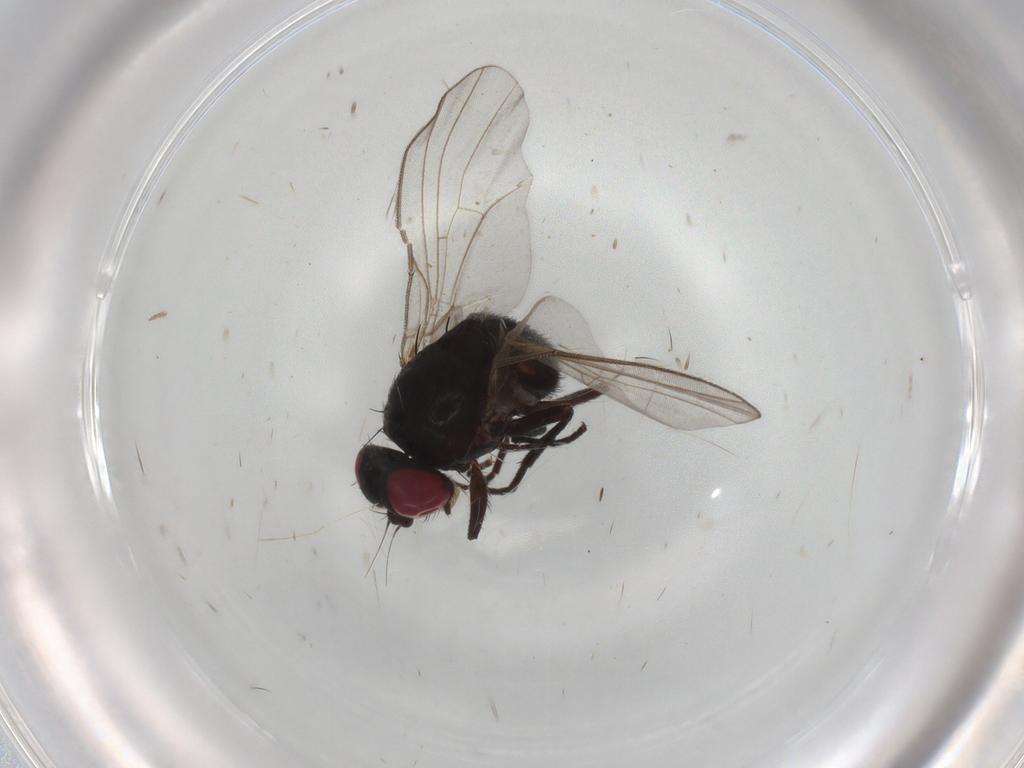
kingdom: Animalia
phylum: Arthropoda
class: Insecta
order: Diptera
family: Agromyzidae
